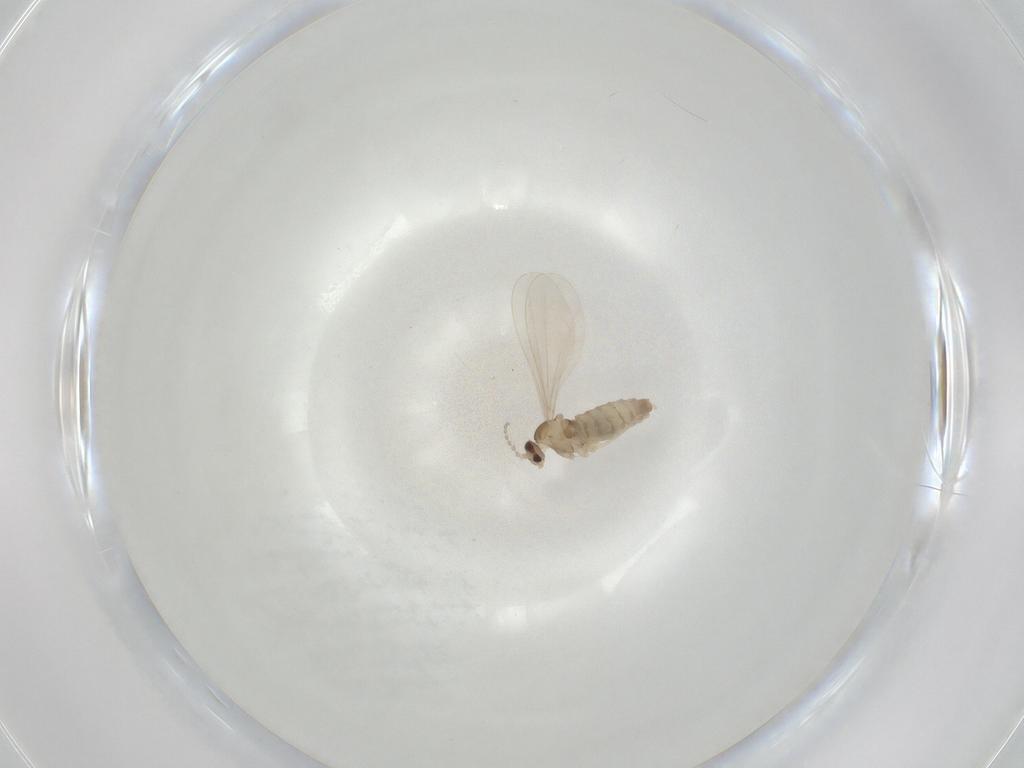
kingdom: Animalia
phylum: Arthropoda
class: Insecta
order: Diptera
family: Cecidomyiidae
